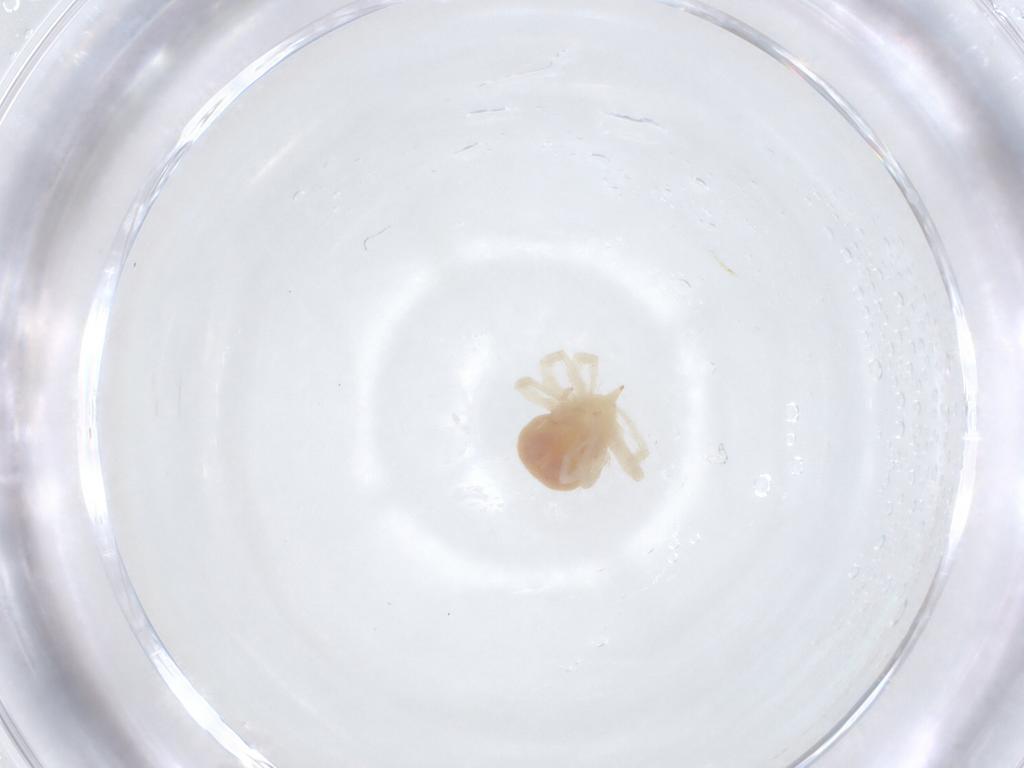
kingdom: Animalia
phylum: Arthropoda
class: Arachnida
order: Trombidiformes
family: Anystidae
